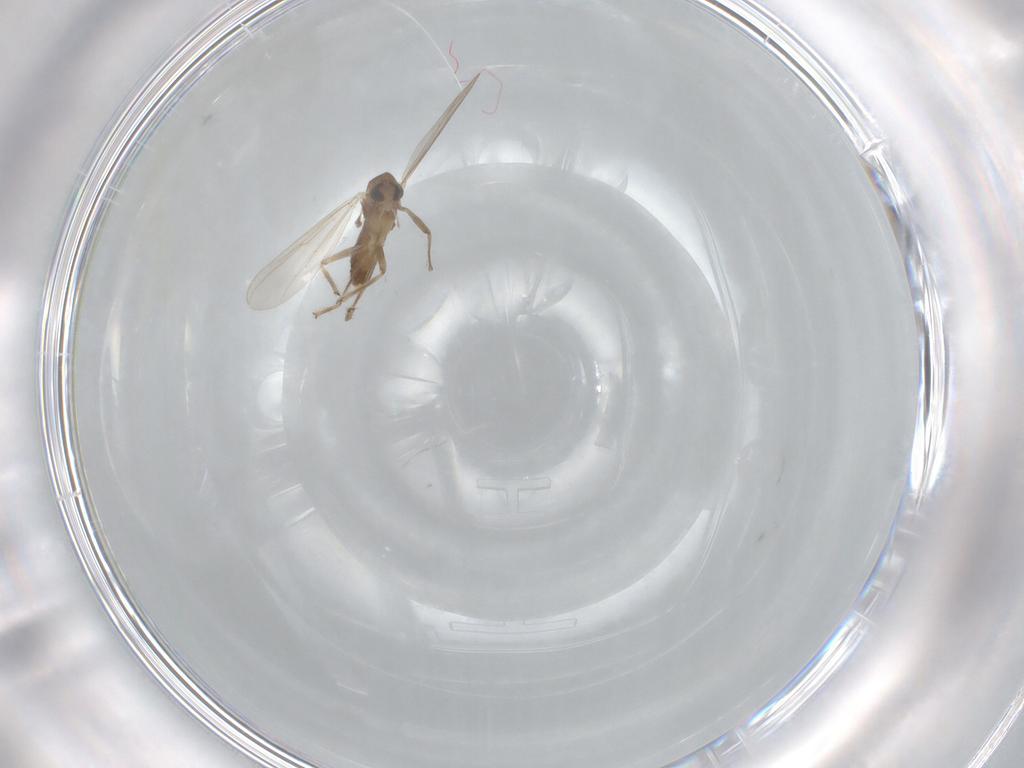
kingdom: Animalia
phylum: Arthropoda
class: Insecta
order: Diptera
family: Chironomidae
